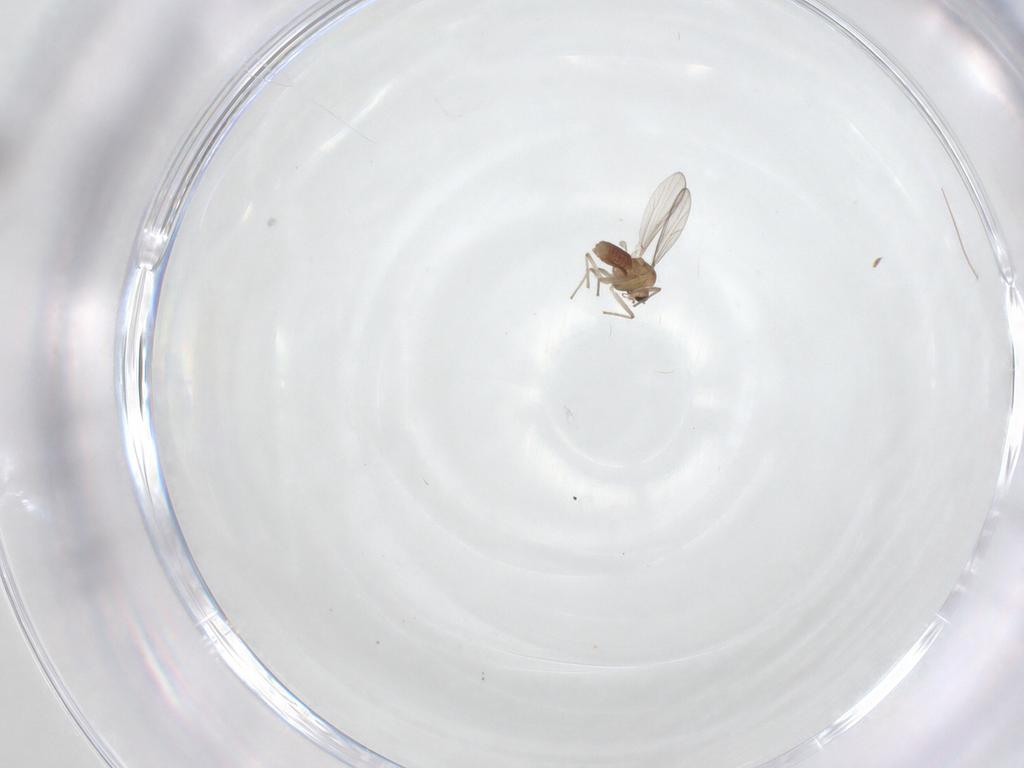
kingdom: Animalia
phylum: Arthropoda
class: Insecta
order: Diptera
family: Chironomidae
